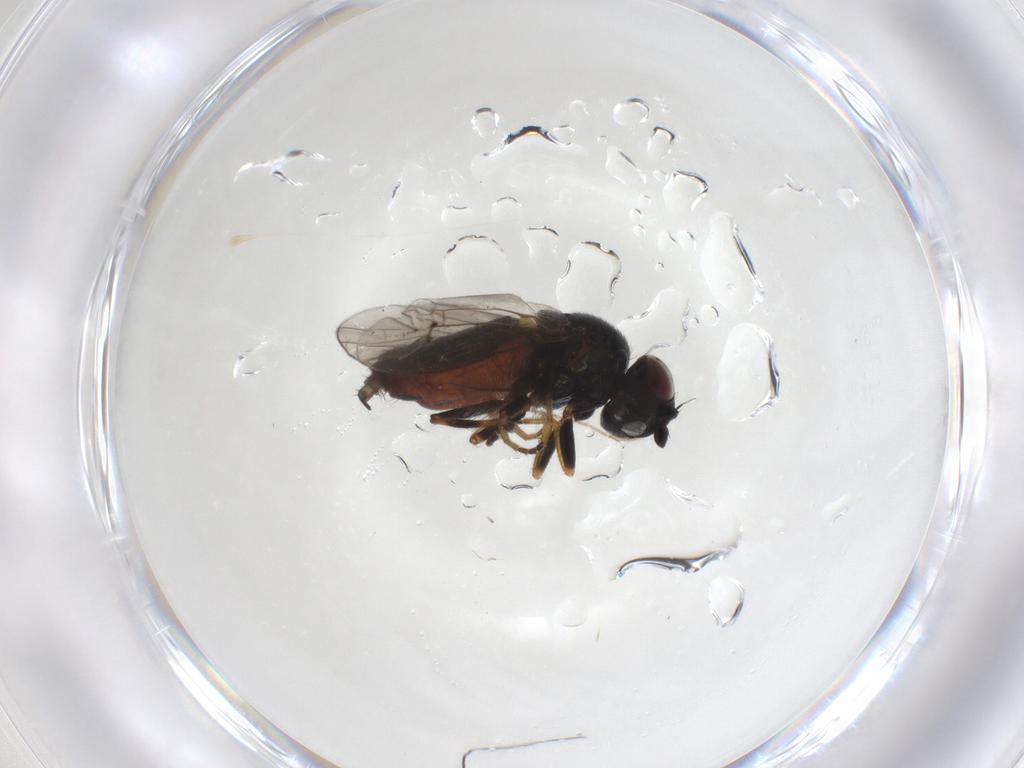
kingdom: Animalia
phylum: Arthropoda
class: Insecta
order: Diptera
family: Chloropidae
